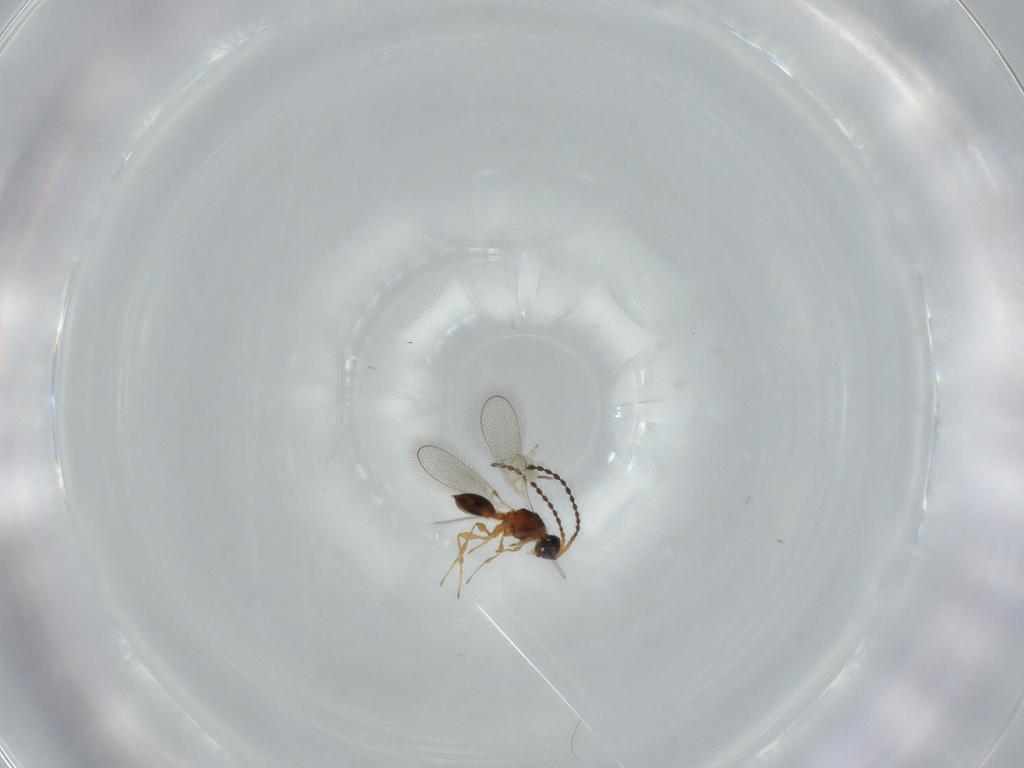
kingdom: Animalia
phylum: Arthropoda
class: Insecta
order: Hymenoptera
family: Diapriidae
